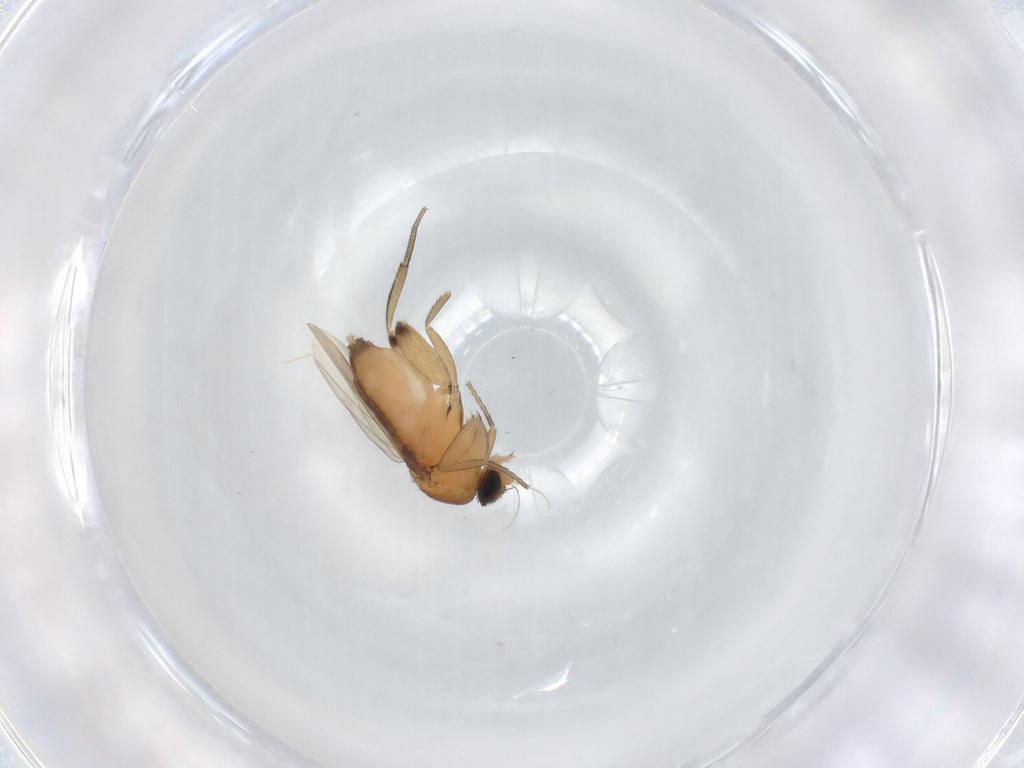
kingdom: Animalia
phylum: Arthropoda
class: Insecta
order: Diptera
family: Phoridae
